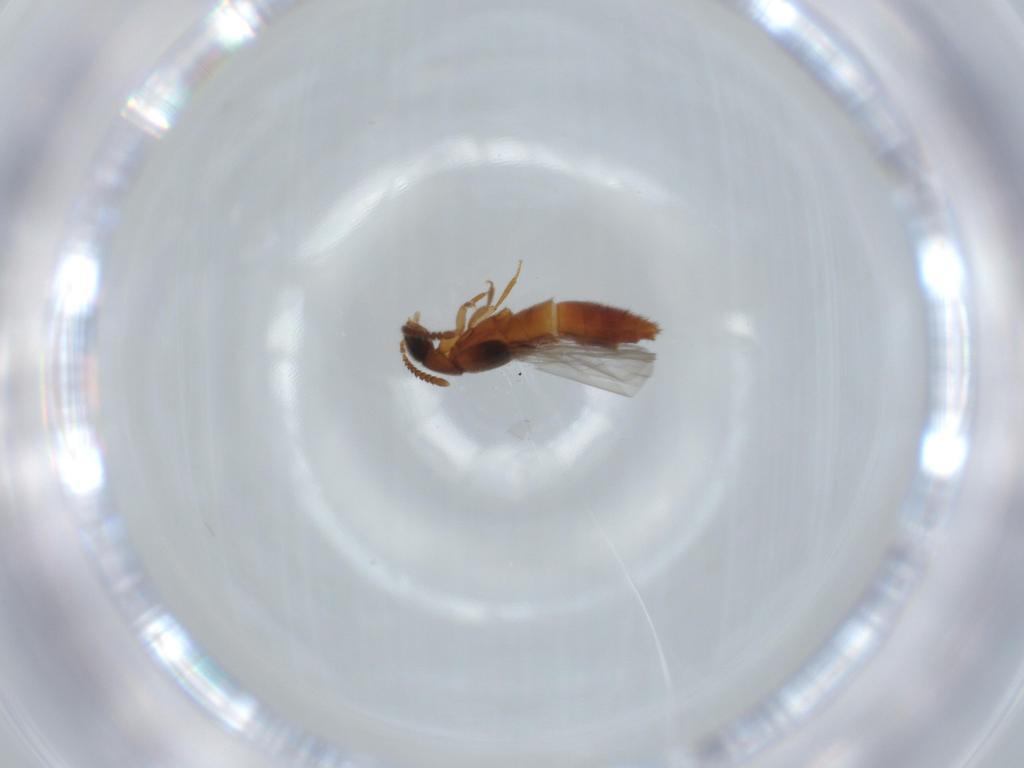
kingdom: Animalia
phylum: Arthropoda
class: Insecta
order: Coleoptera
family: Staphylinidae
